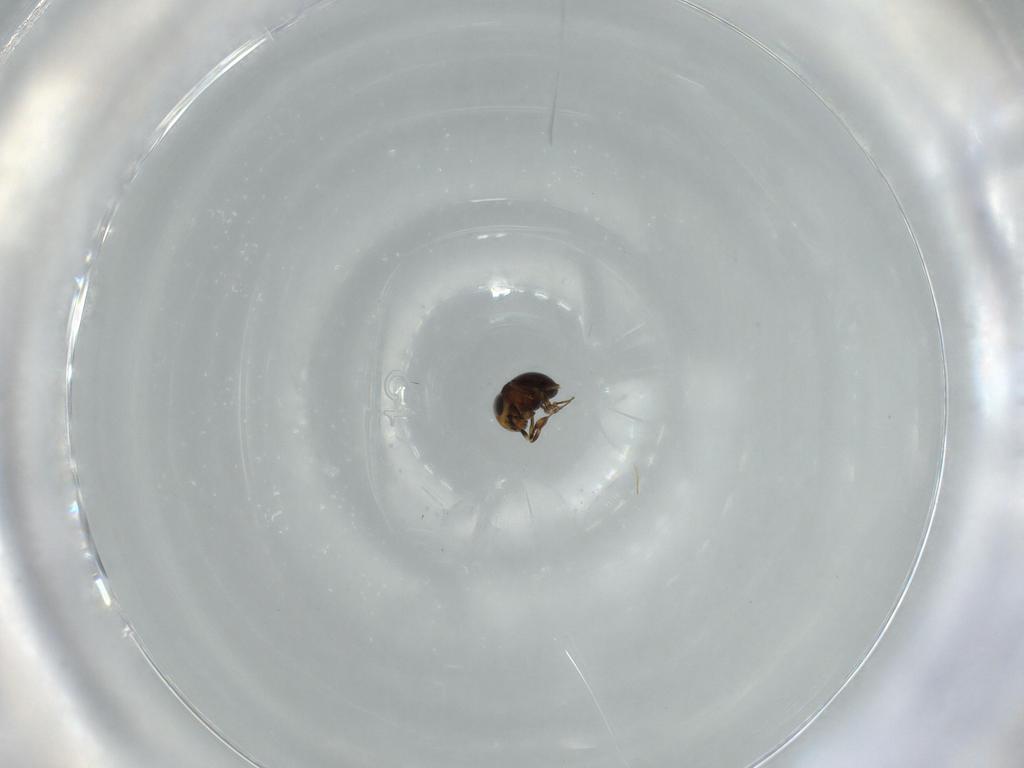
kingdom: Animalia
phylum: Arthropoda
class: Insecta
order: Hymenoptera
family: Scelionidae
